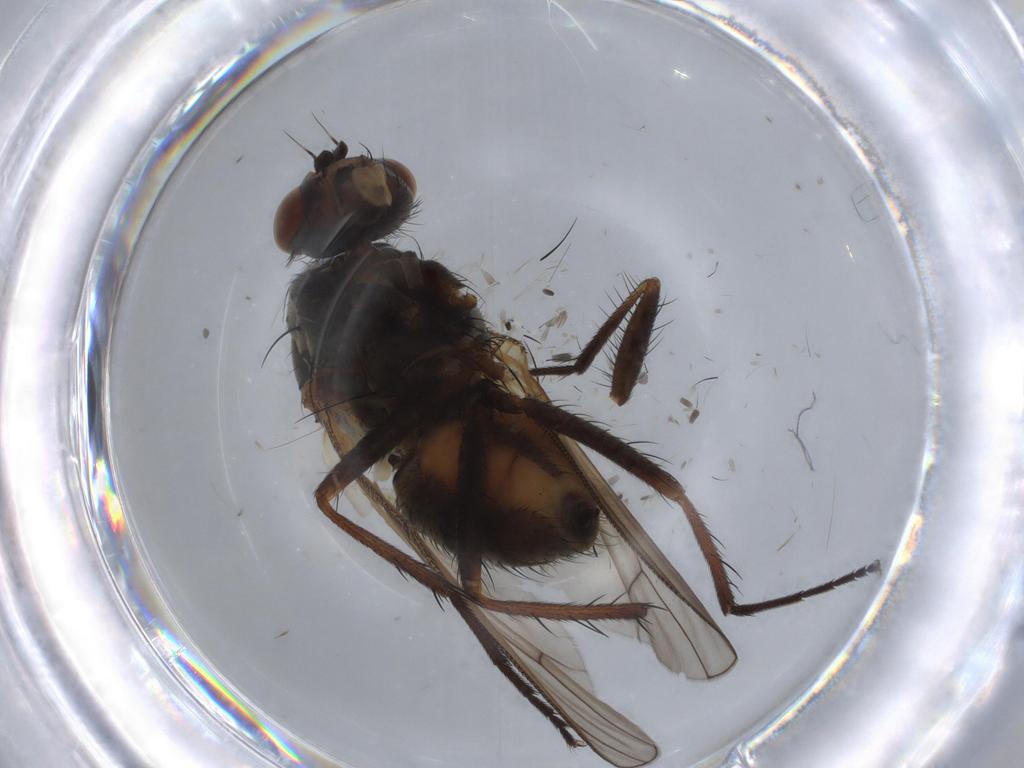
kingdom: Animalia
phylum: Arthropoda
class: Insecta
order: Diptera
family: Anthomyiidae
